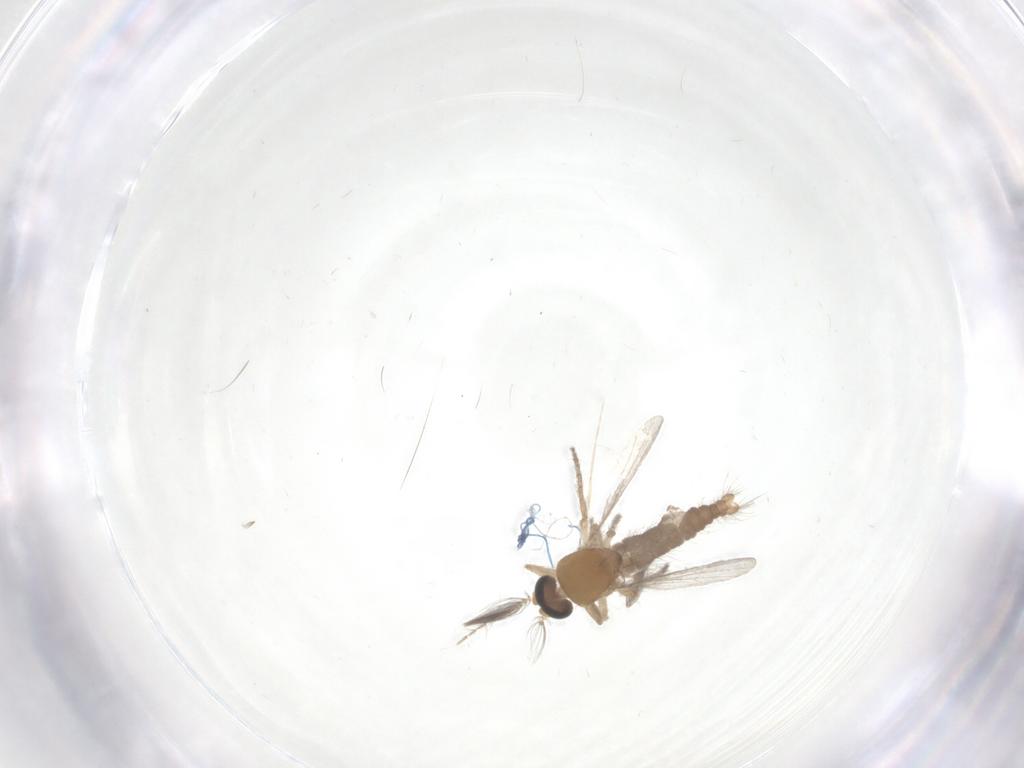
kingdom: Animalia
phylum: Arthropoda
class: Insecta
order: Diptera
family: Ceratopogonidae
